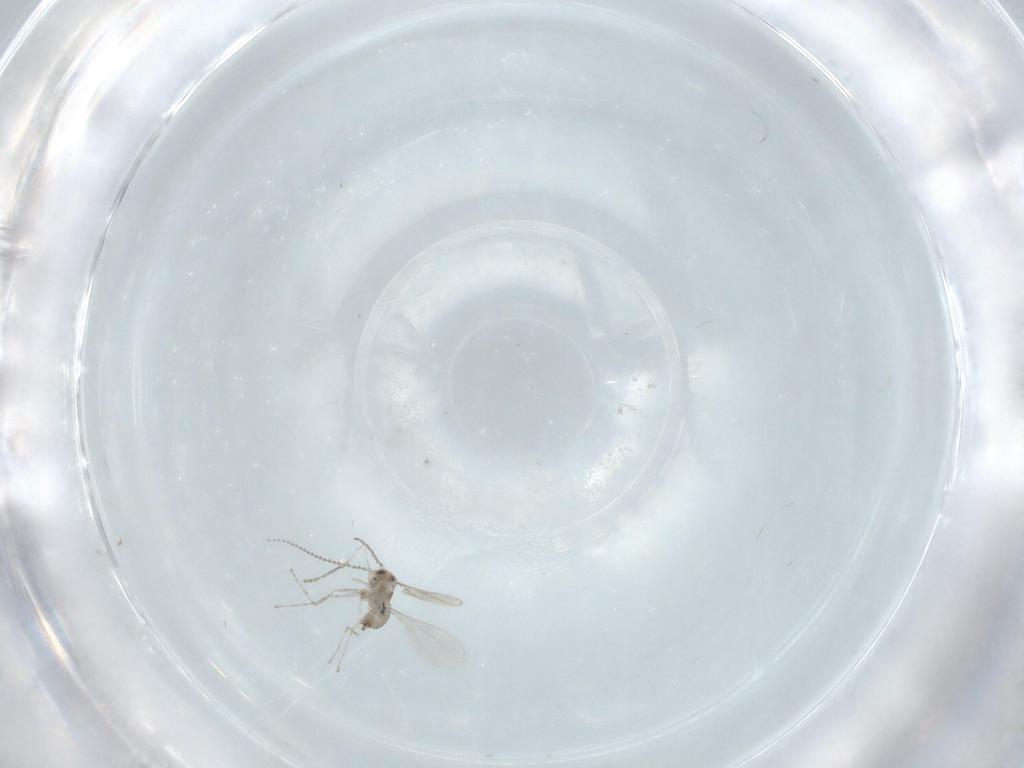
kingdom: Animalia
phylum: Arthropoda
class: Insecta
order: Diptera
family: Cecidomyiidae
